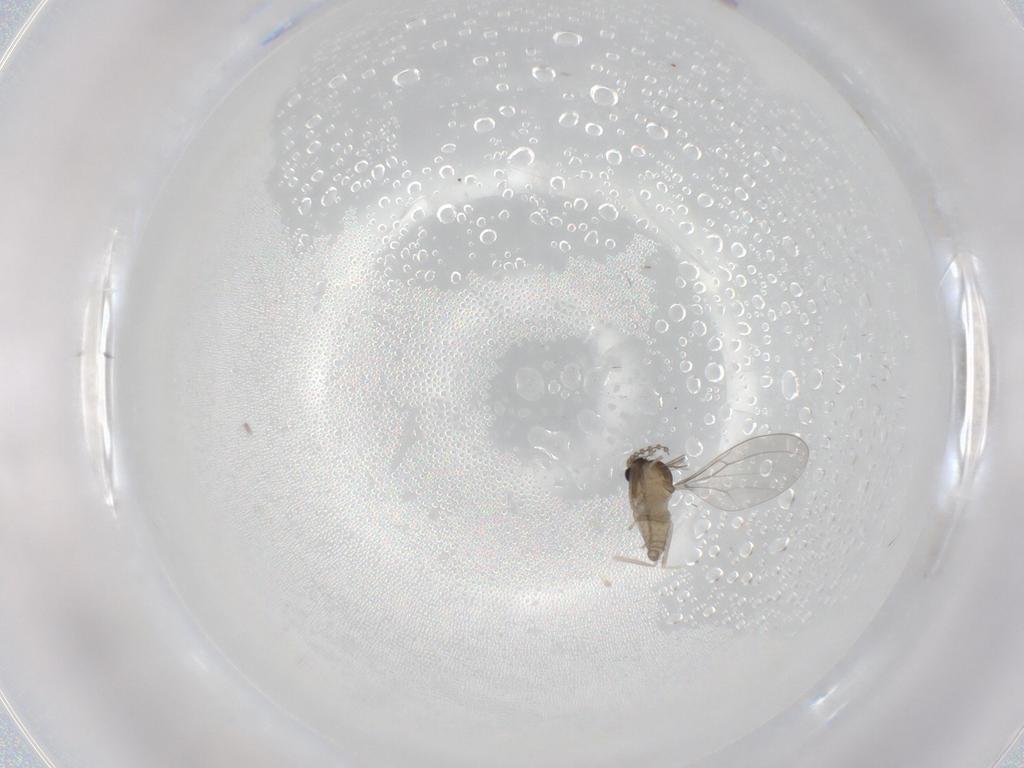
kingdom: Animalia
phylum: Arthropoda
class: Insecta
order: Diptera
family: Cecidomyiidae
